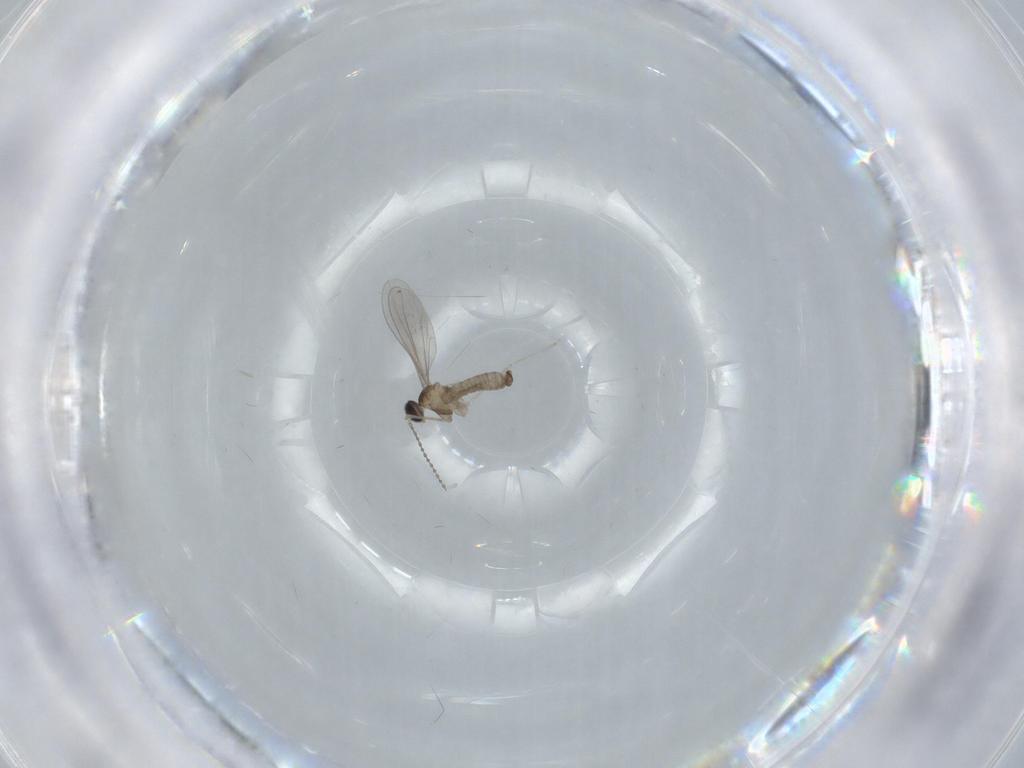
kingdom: Animalia
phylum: Arthropoda
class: Insecta
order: Diptera
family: Cecidomyiidae
